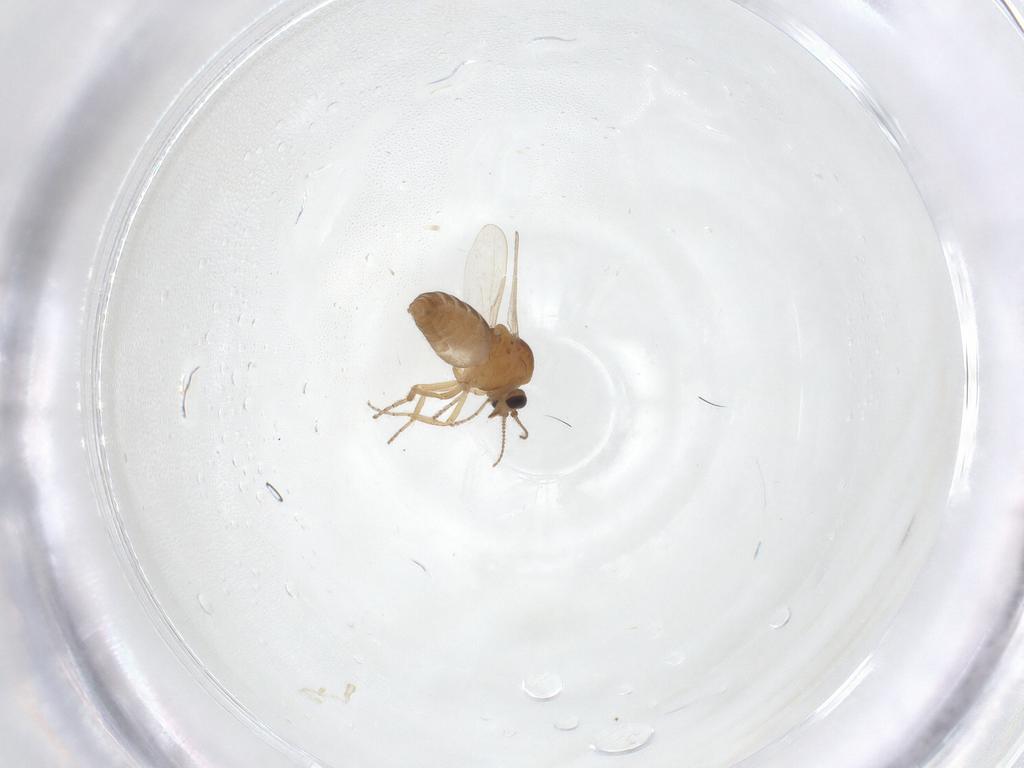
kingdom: Animalia
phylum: Arthropoda
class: Insecta
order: Diptera
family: Ceratopogonidae
